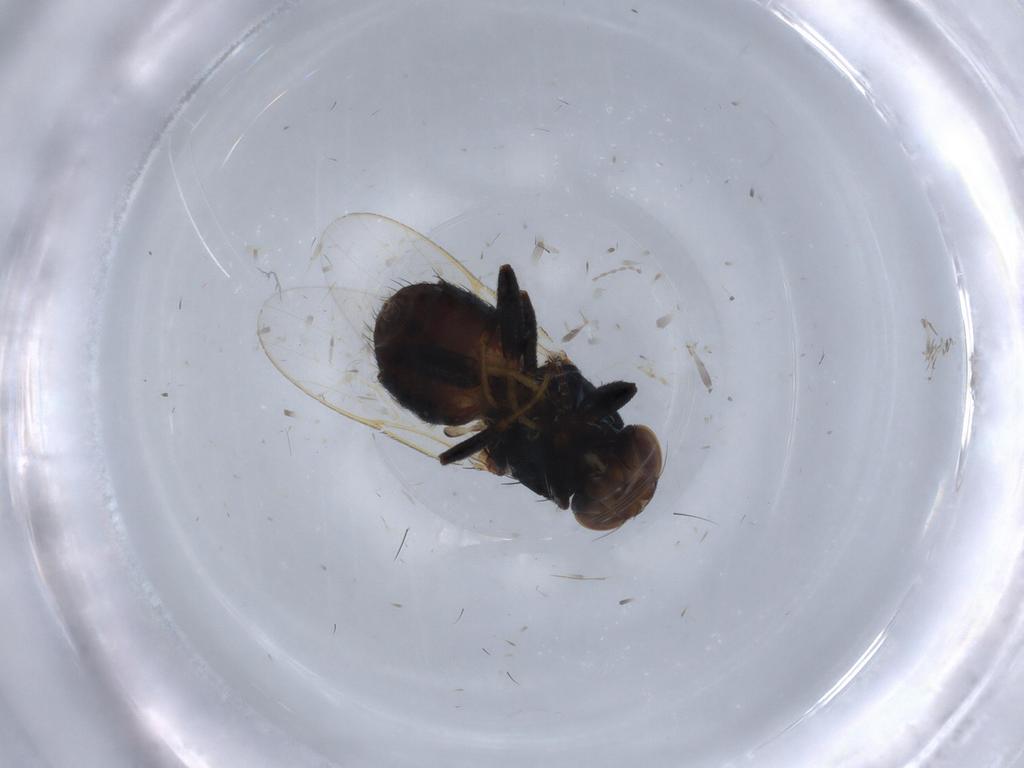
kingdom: Animalia
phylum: Arthropoda
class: Insecta
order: Diptera
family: Chloropidae
